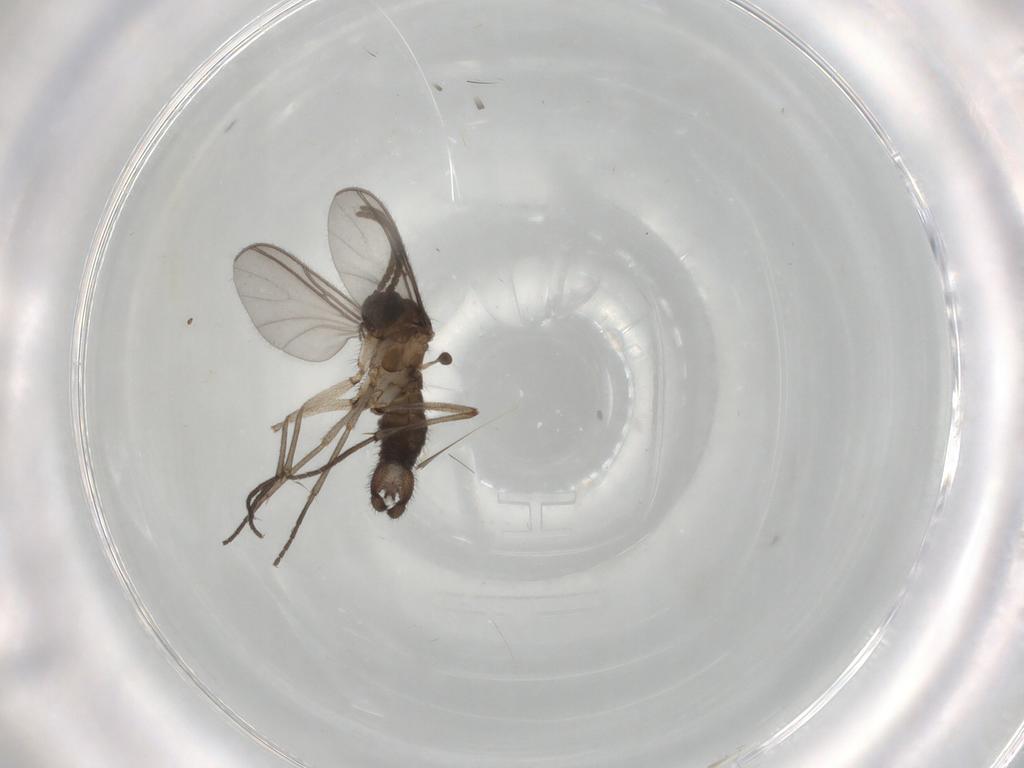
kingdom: Animalia
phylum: Arthropoda
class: Insecta
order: Diptera
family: Sciaridae
